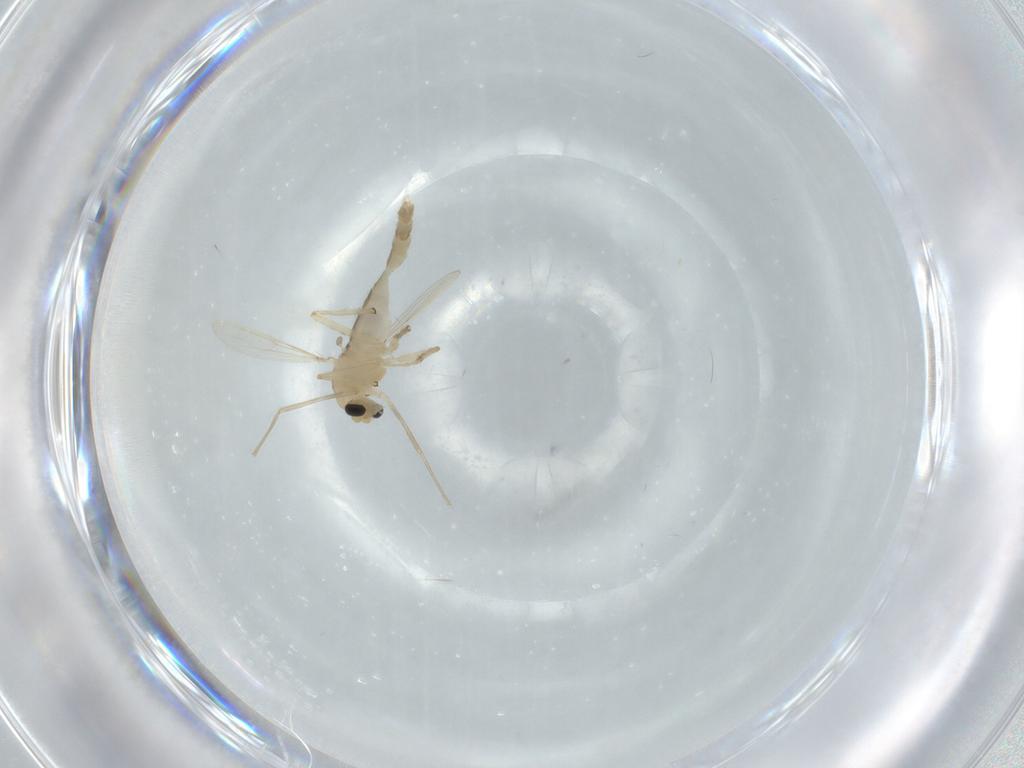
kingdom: Animalia
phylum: Arthropoda
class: Insecta
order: Diptera
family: Chironomidae
